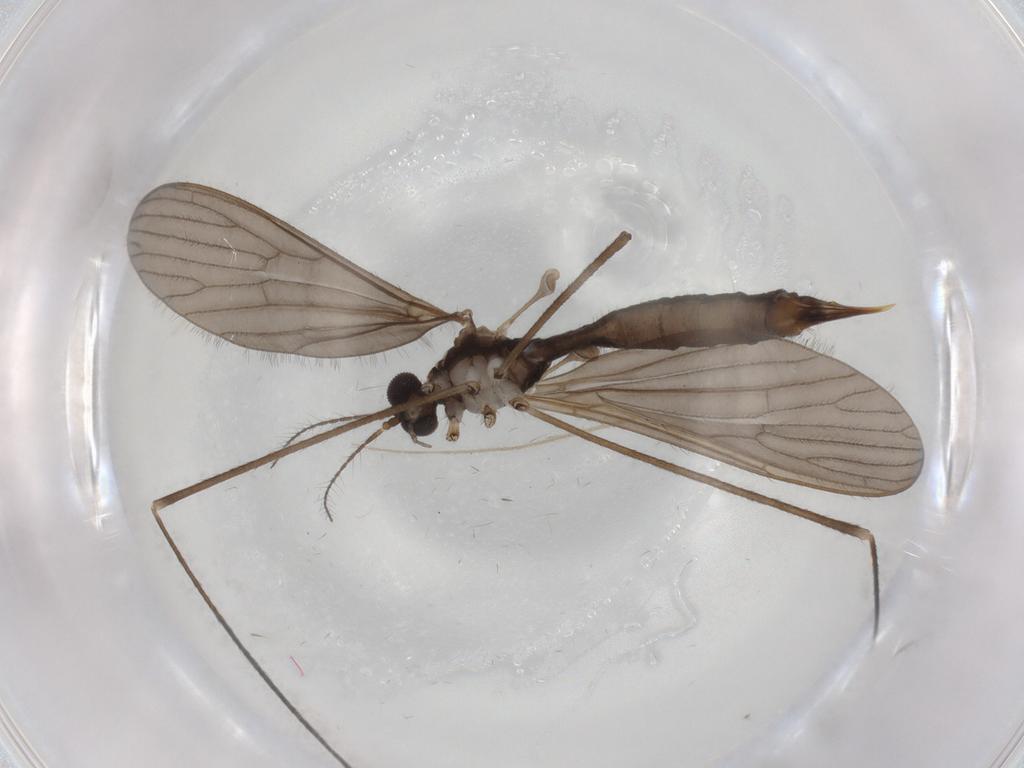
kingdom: Animalia
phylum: Arthropoda
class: Insecta
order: Diptera
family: Limoniidae
